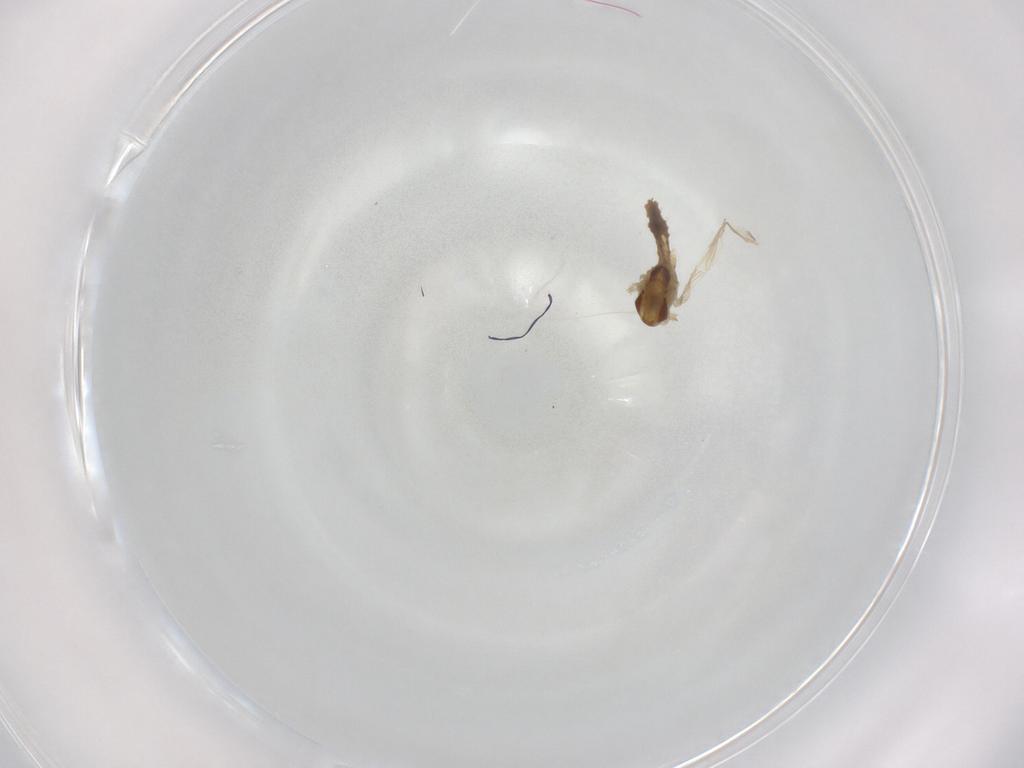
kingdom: Animalia
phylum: Arthropoda
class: Insecta
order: Diptera
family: Chironomidae
